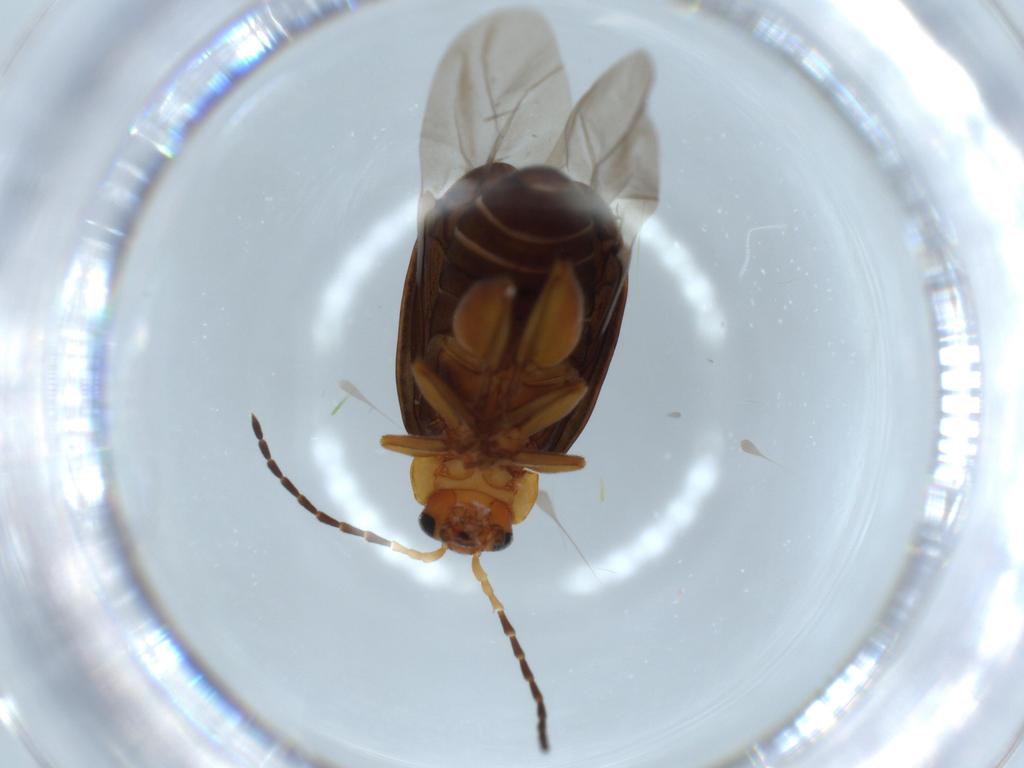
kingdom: Animalia
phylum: Arthropoda
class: Insecta
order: Coleoptera
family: Chrysomelidae
